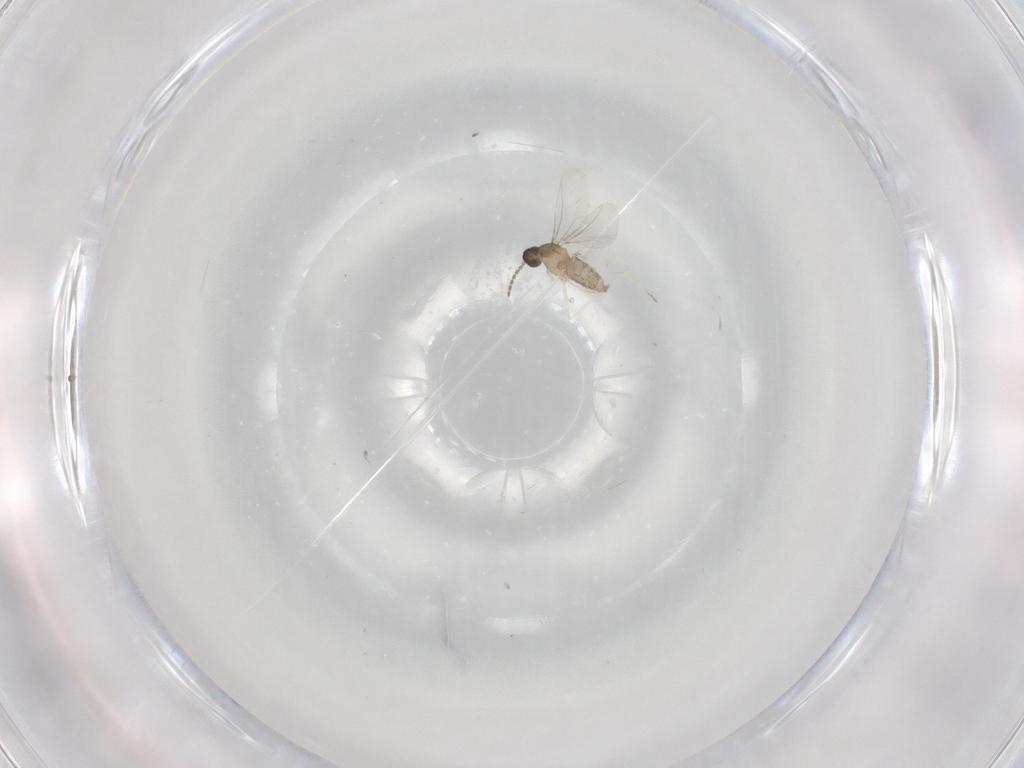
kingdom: Animalia
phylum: Arthropoda
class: Insecta
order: Diptera
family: Cecidomyiidae
